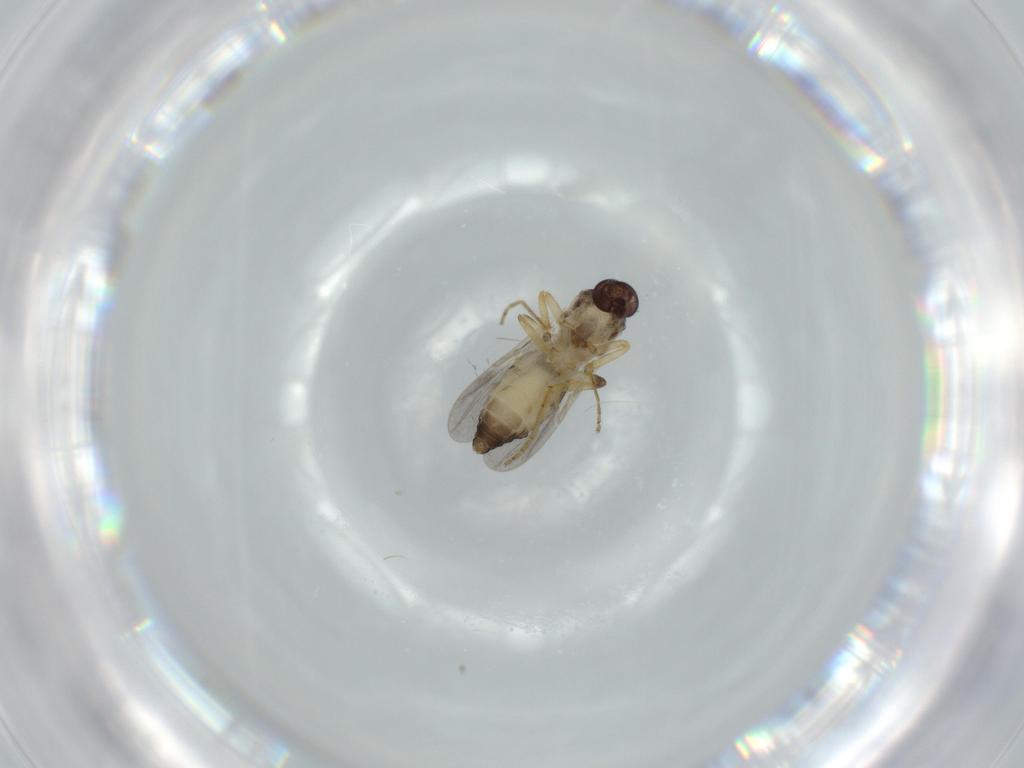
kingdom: Animalia
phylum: Arthropoda
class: Insecta
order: Diptera
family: Ceratopogonidae
